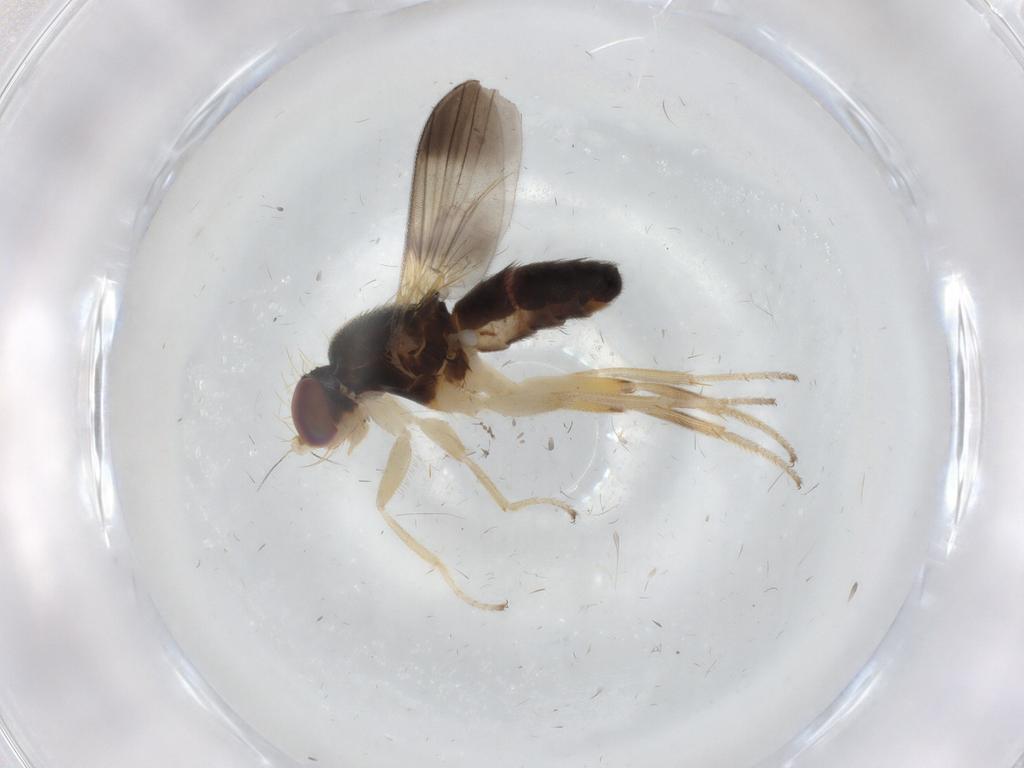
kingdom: Animalia
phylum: Arthropoda
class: Insecta
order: Diptera
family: Clusiidae
